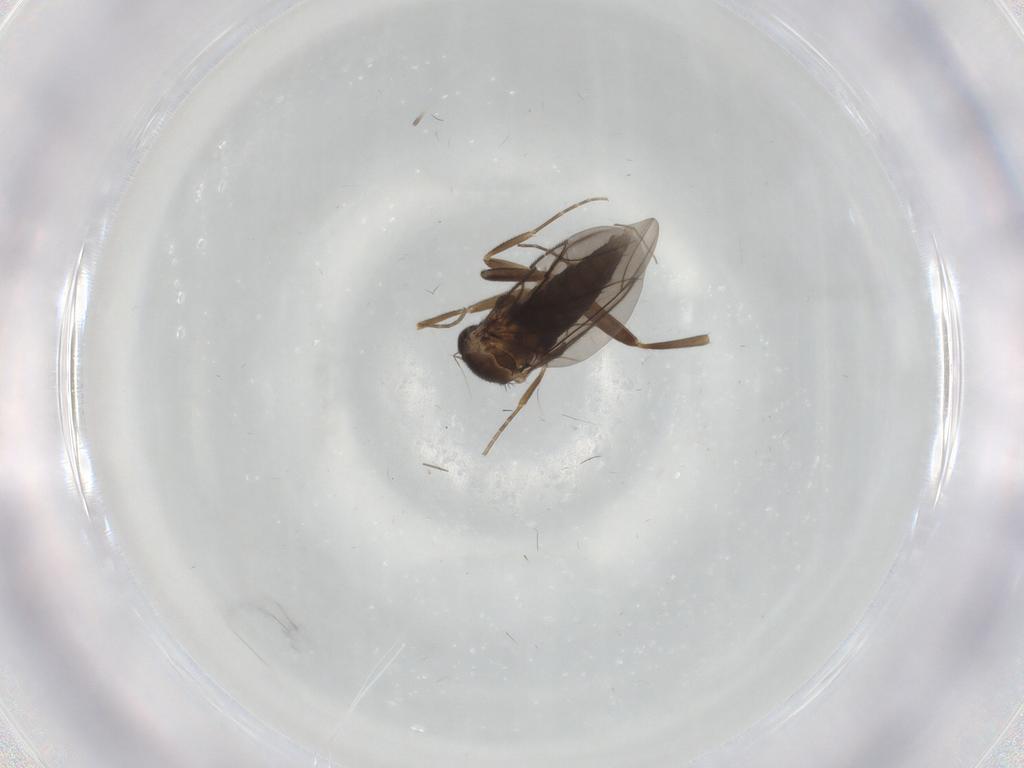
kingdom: Animalia
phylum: Arthropoda
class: Insecta
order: Diptera
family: Chironomidae
